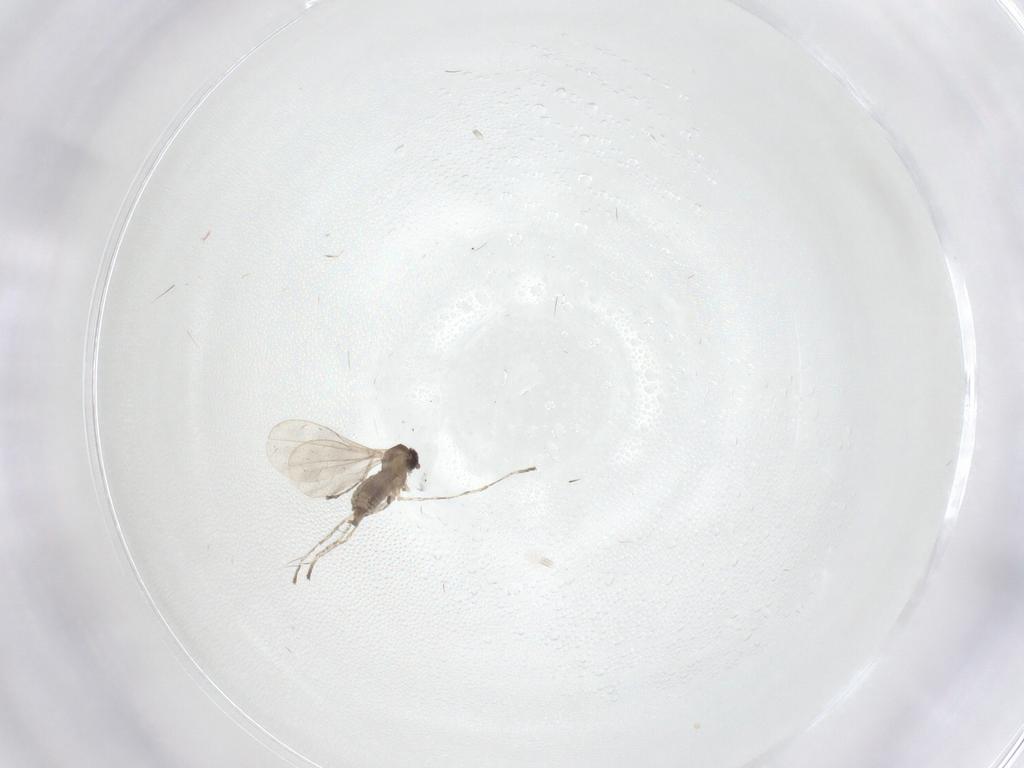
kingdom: Animalia
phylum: Arthropoda
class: Insecta
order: Diptera
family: Cecidomyiidae
